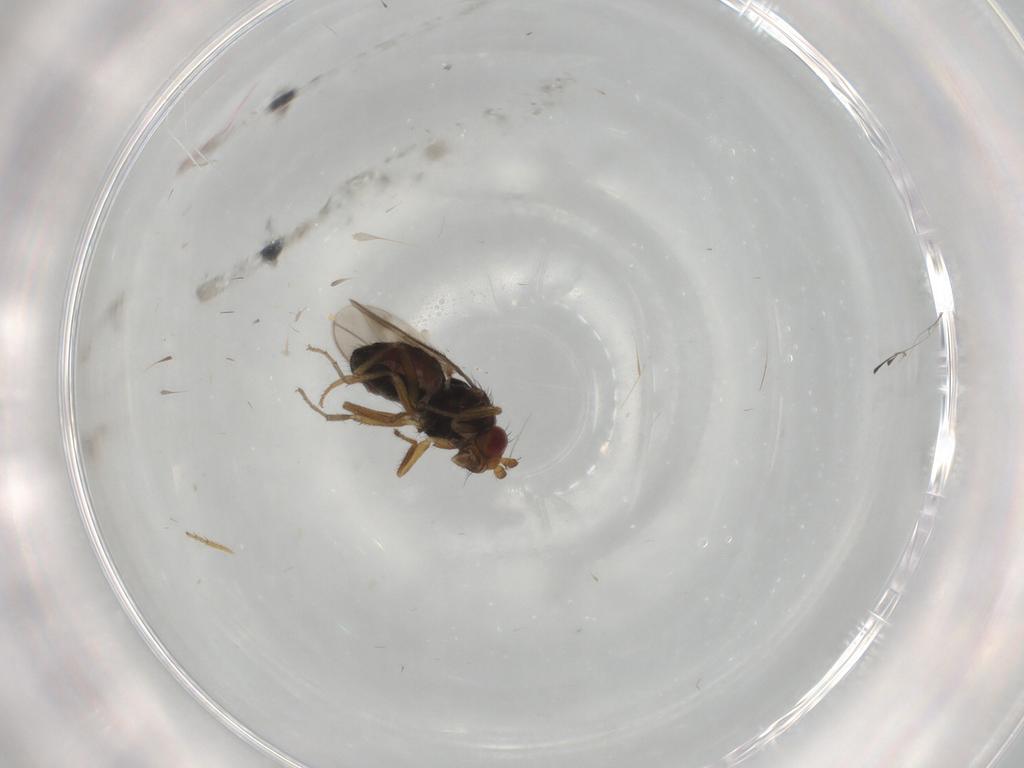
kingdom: Animalia
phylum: Arthropoda
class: Insecta
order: Diptera
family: Sphaeroceridae
